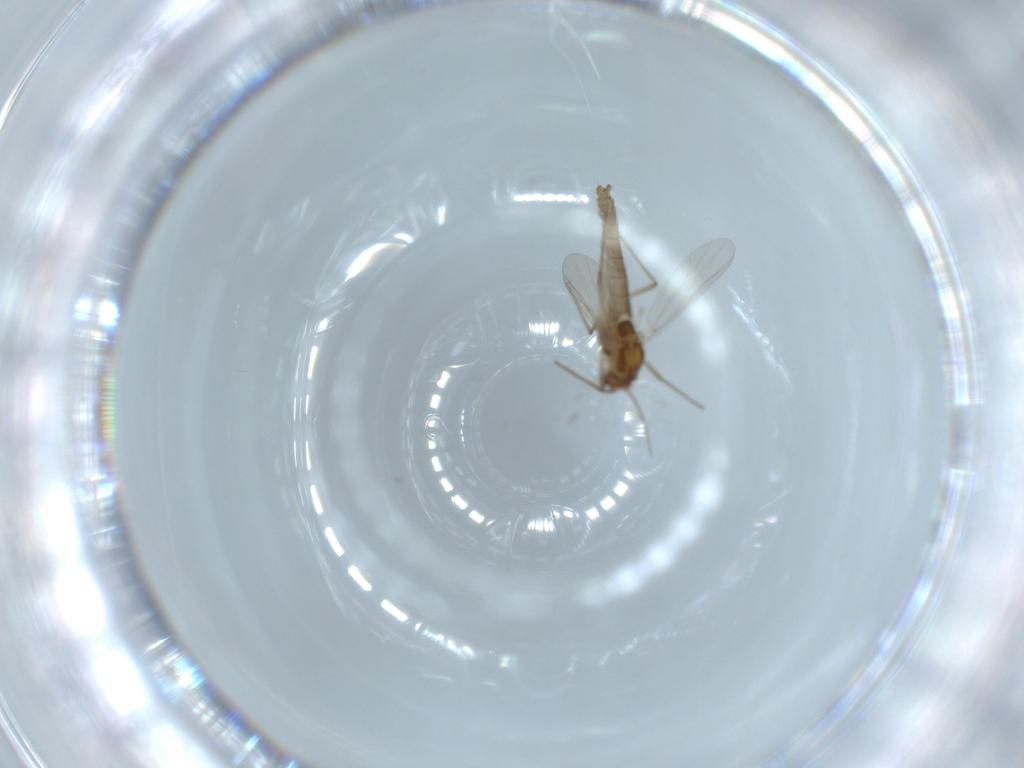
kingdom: Animalia
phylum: Arthropoda
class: Insecta
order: Diptera
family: Chironomidae
